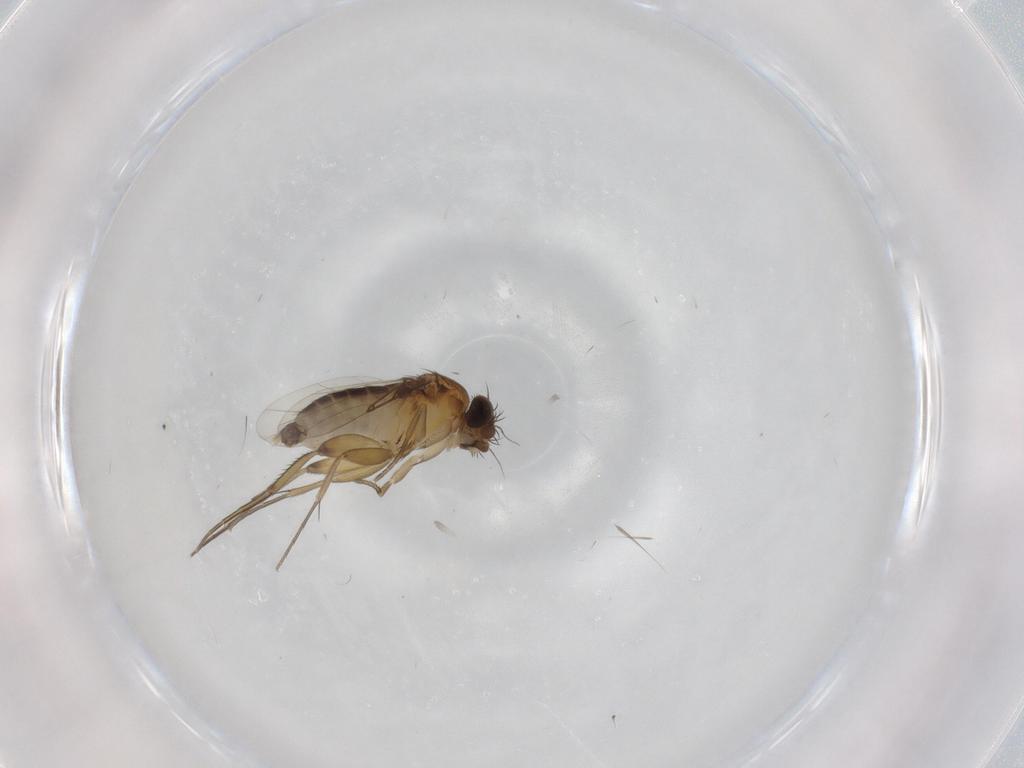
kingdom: Animalia
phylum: Arthropoda
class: Insecta
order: Diptera
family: Phoridae
